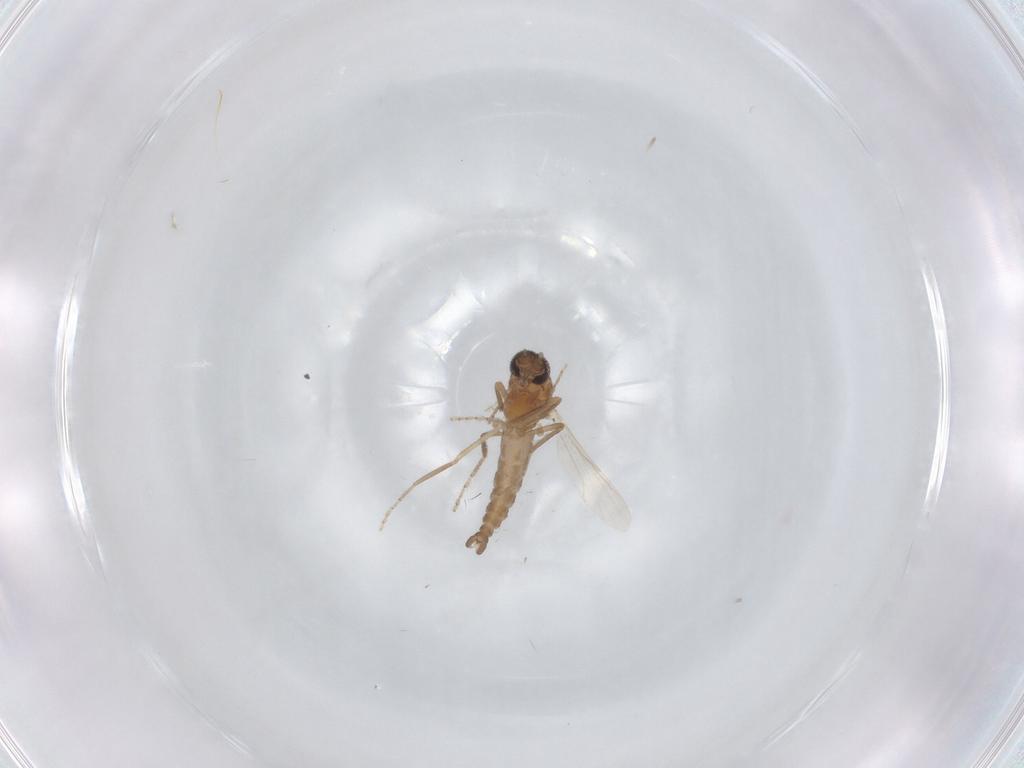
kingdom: Animalia
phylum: Arthropoda
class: Insecta
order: Diptera
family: Ceratopogonidae
